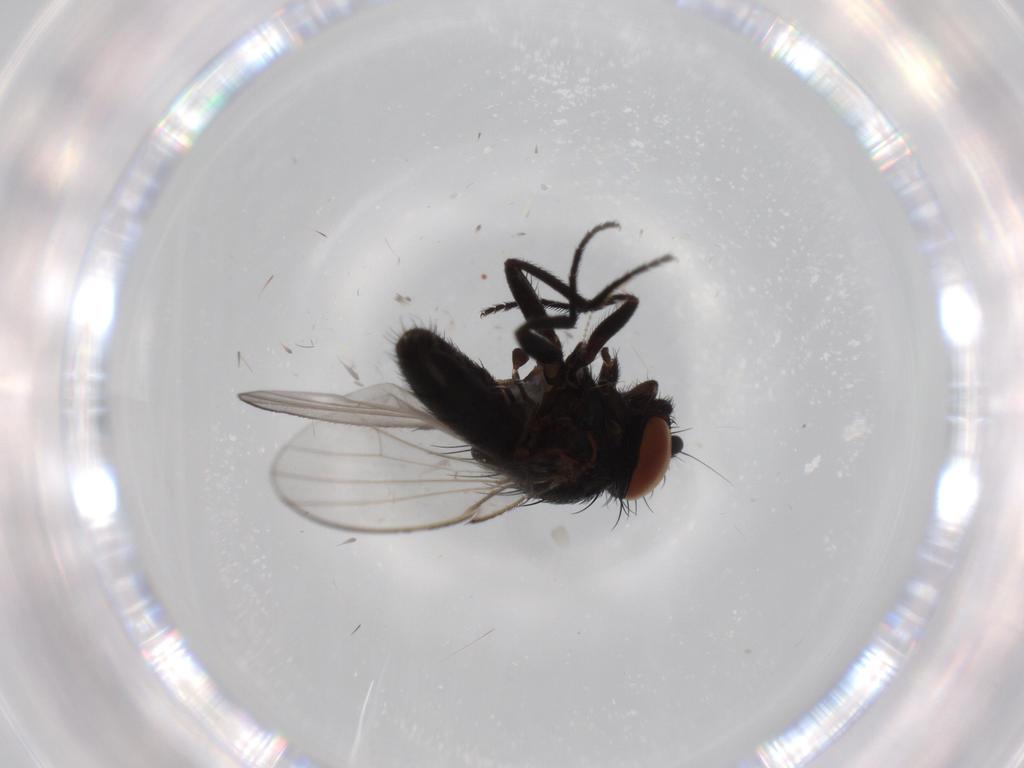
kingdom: Animalia
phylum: Arthropoda
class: Insecta
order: Diptera
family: Milichiidae
